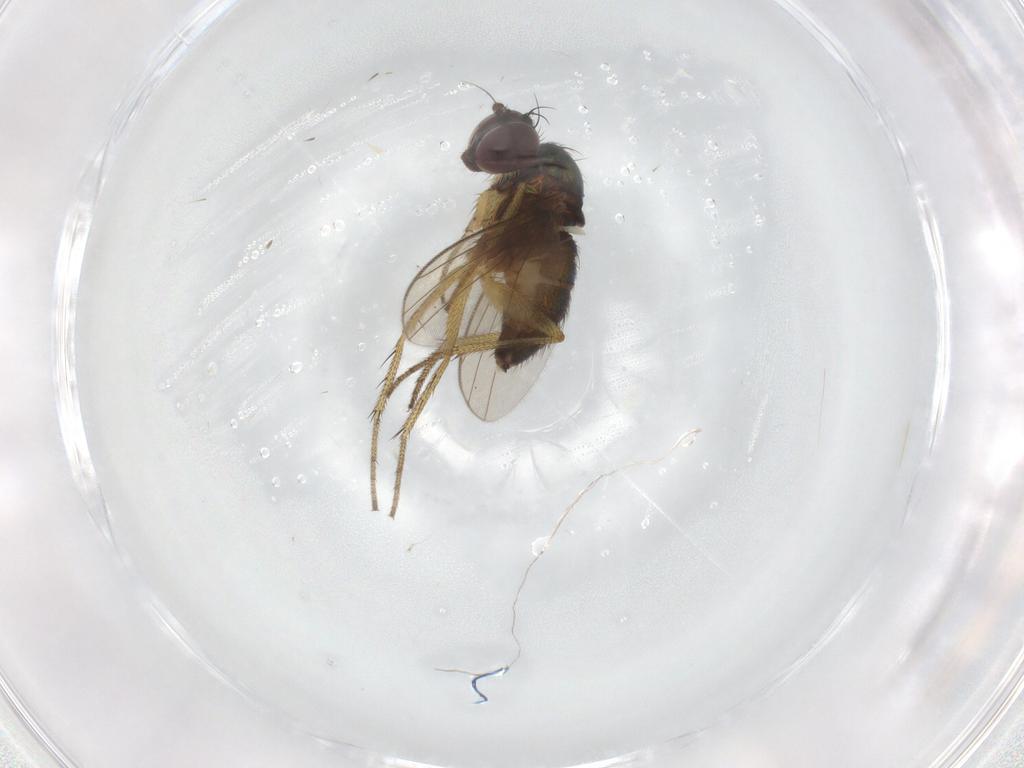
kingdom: Animalia
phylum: Arthropoda
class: Insecta
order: Diptera
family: Dolichopodidae
